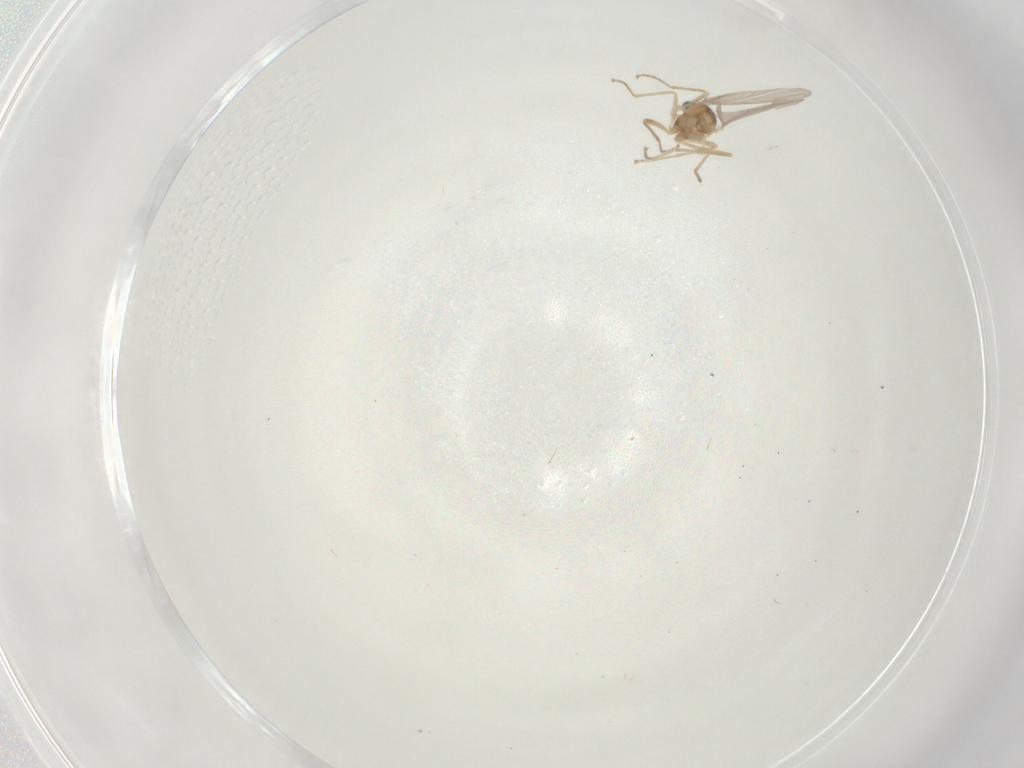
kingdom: Animalia
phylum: Arthropoda
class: Insecta
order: Diptera
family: Cecidomyiidae
